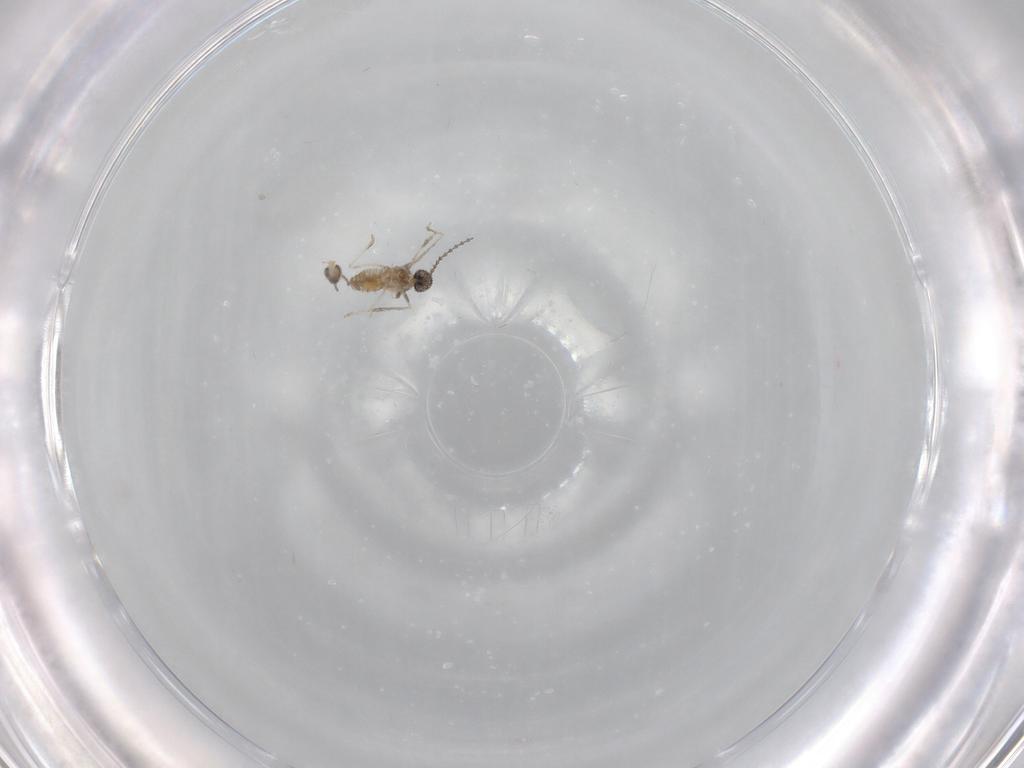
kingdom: Animalia
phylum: Arthropoda
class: Insecta
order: Diptera
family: Cecidomyiidae
